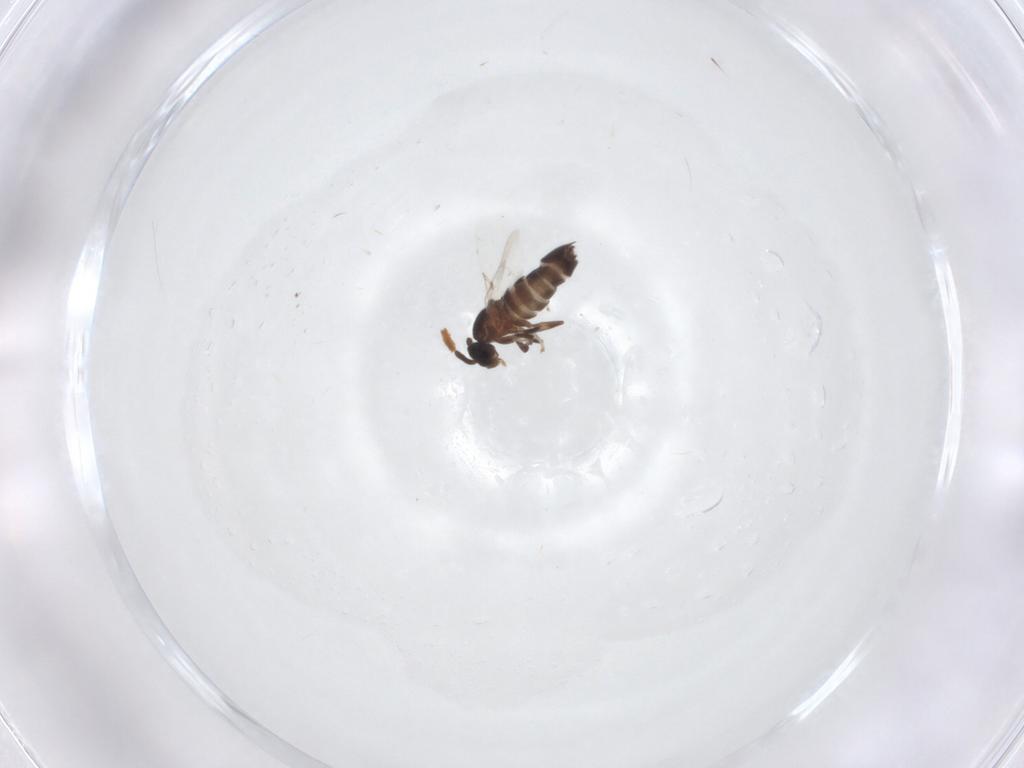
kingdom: Animalia
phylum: Arthropoda
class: Insecta
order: Diptera
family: Scatopsidae
